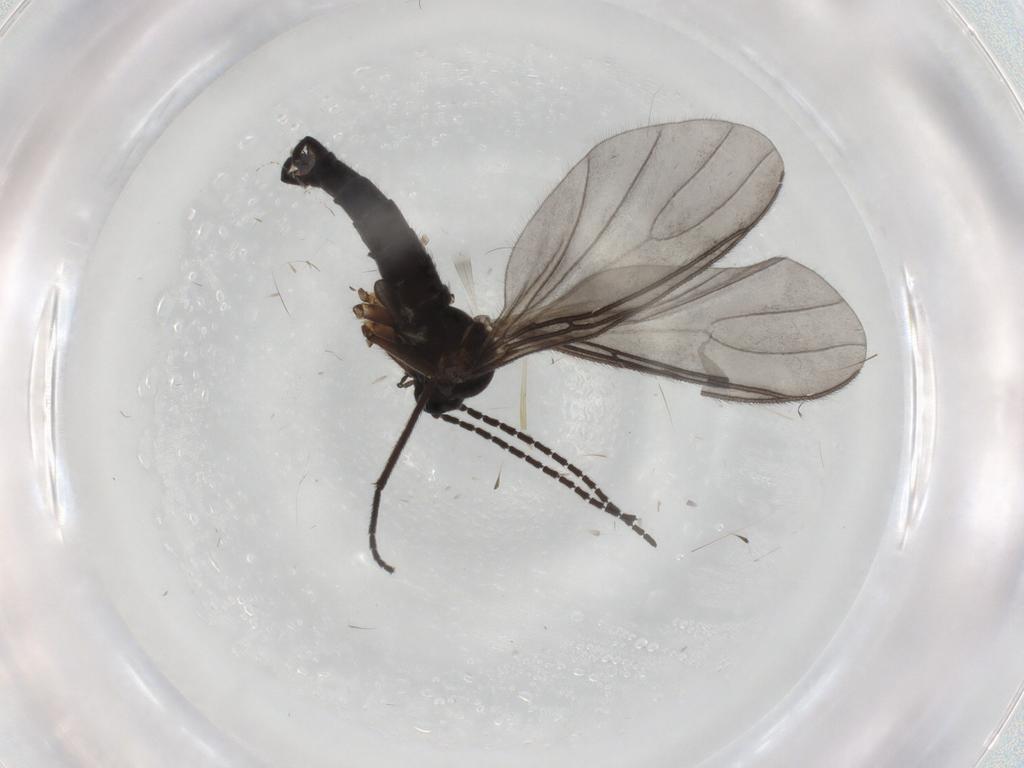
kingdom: Animalia
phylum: Arthropoda
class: Insecta
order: Diptera
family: Sciaridae
